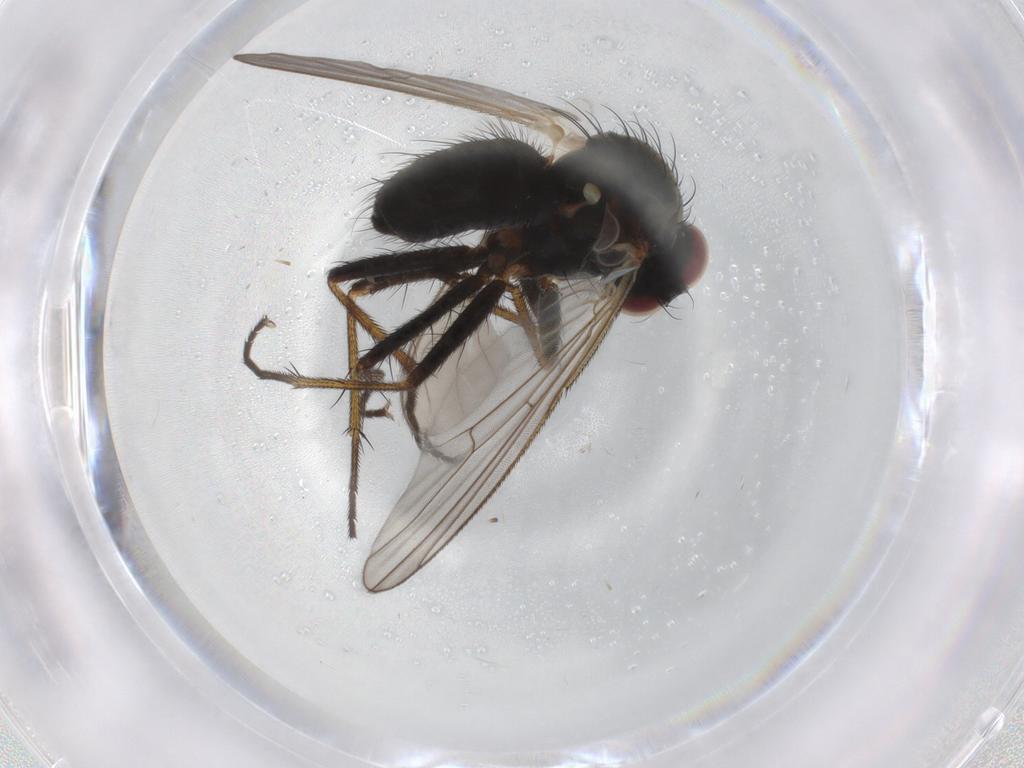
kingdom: Animalia
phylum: Arthropoda
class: Insecta
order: Diptera
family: Muscidae
